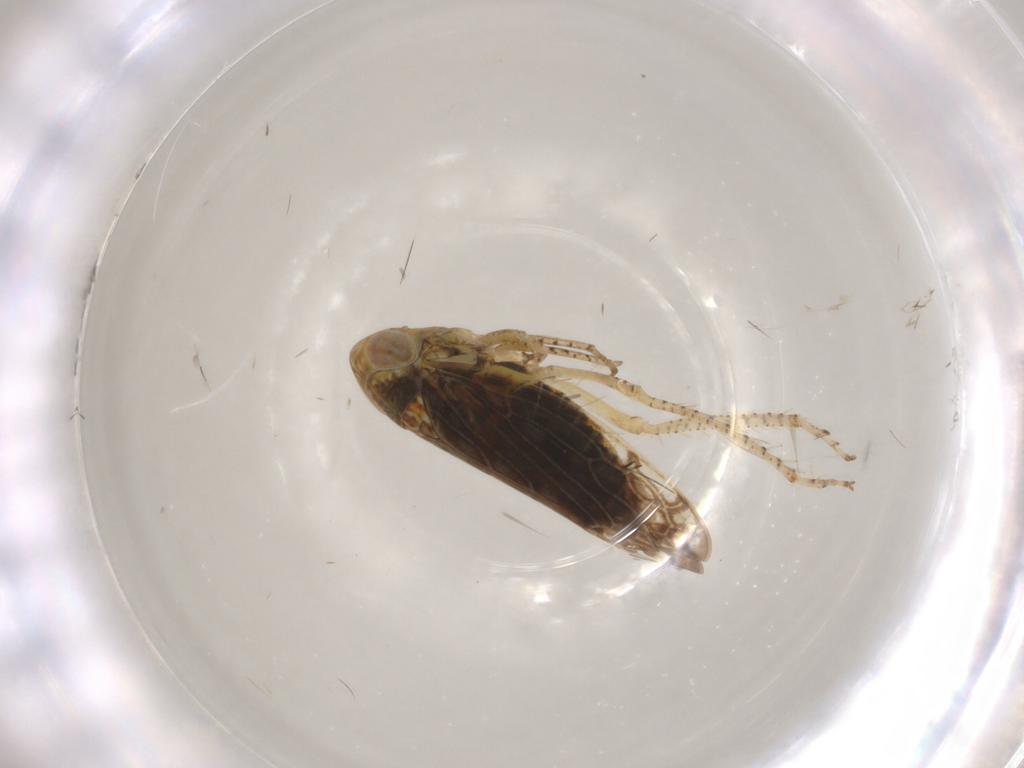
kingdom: Animalia
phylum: Arthropoda
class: Insecta
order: Hemiptera
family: Cicadellidae
